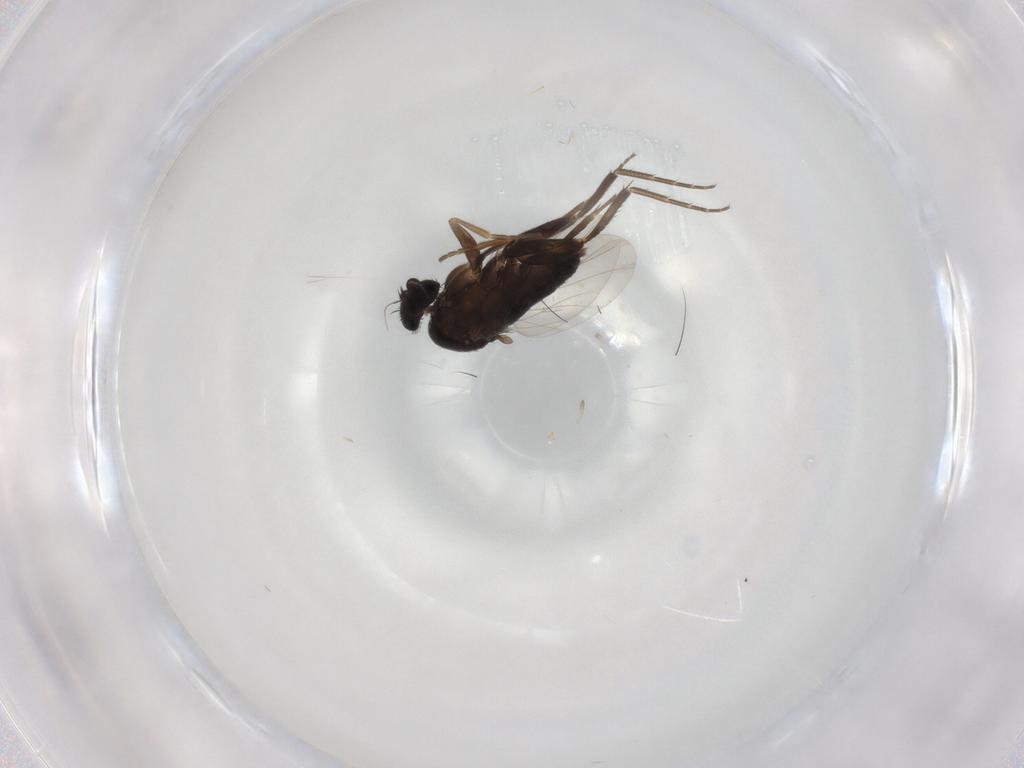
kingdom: Animalia
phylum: Arthropoda
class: Insecta
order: Diptera
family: Phoridae
